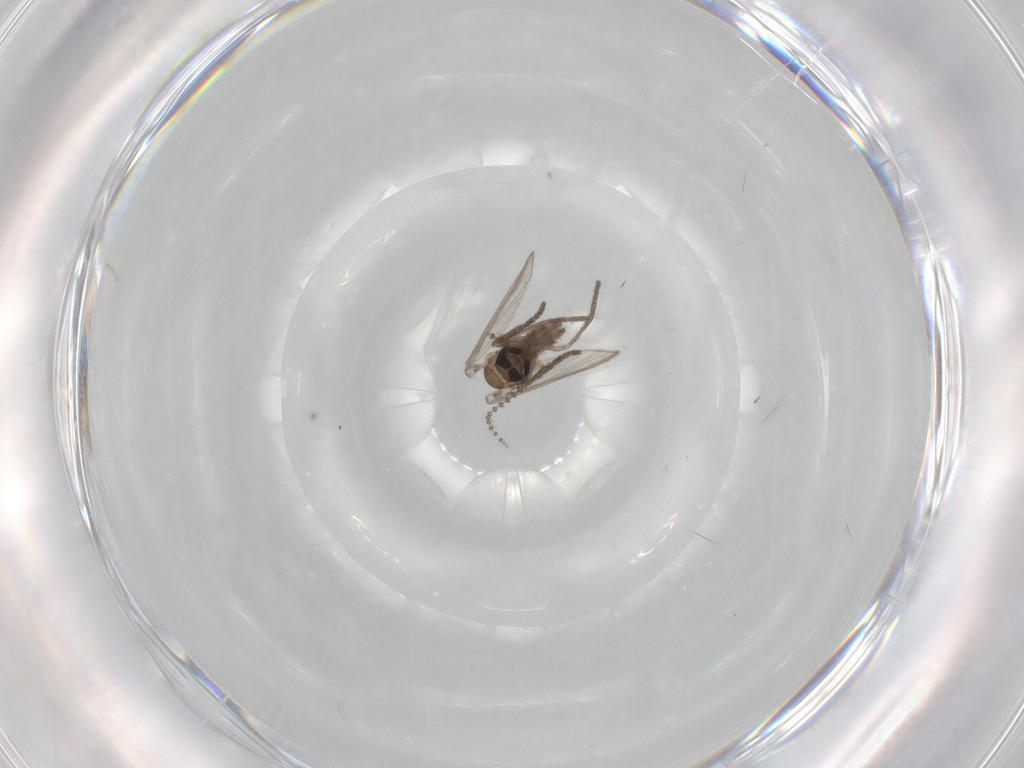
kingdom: Animalia
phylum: Arthropoda
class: Insecta
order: Diptera
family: Psychodidae
